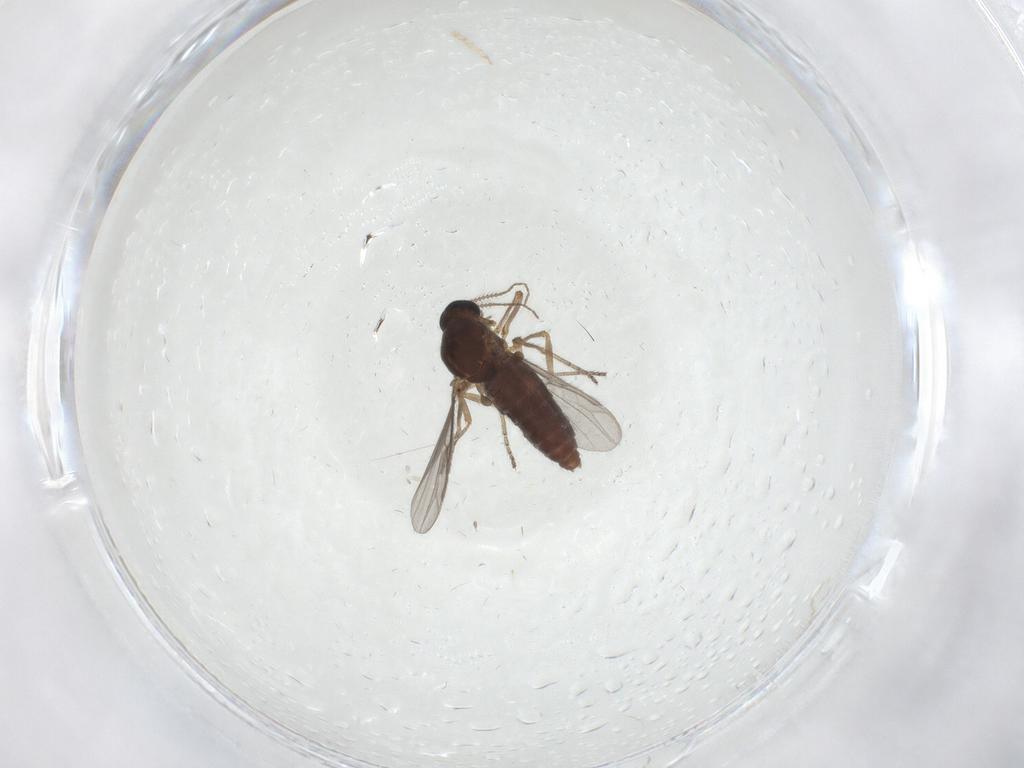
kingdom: Animalia
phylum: Arthropoda
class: Insecta
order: Diptera
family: Ceratopogonidae
